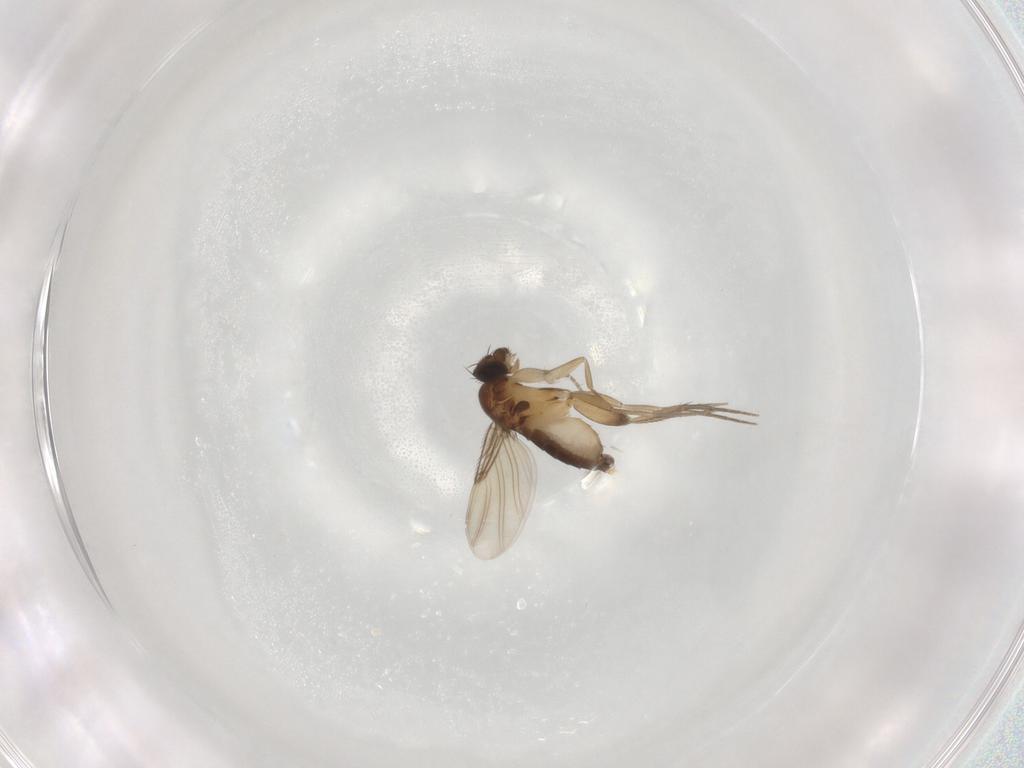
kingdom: Animalia
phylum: Arthropoda
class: Insecta
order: Diptera
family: Phoridae
